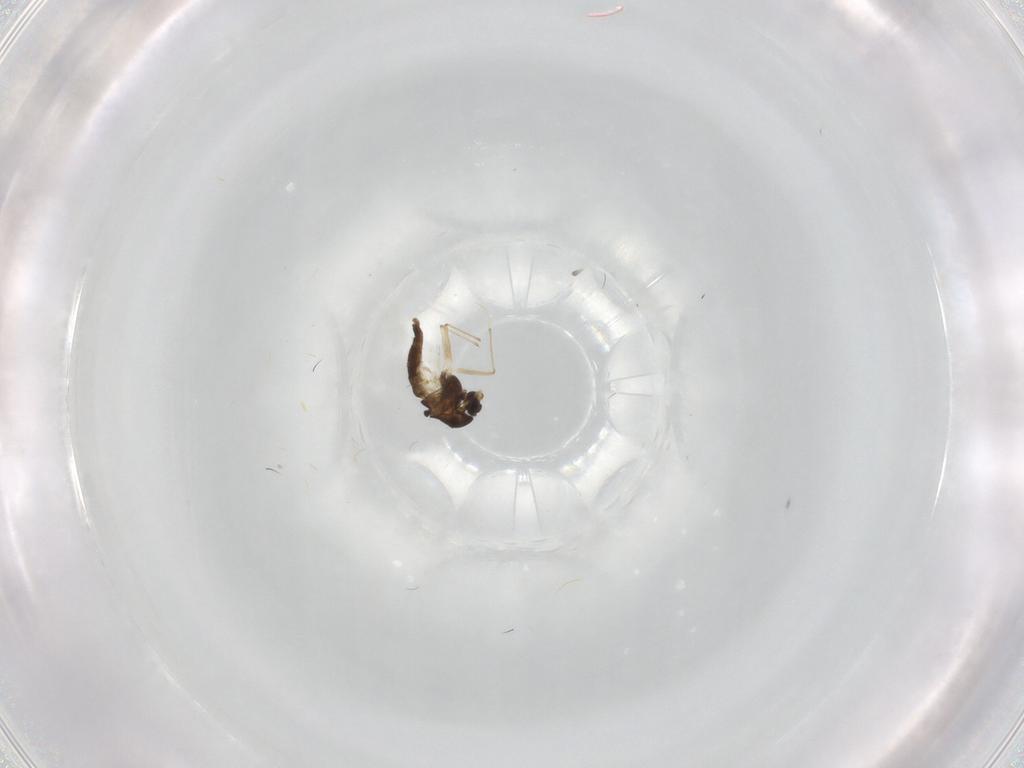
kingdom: Animalia
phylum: Arthropoda
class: Insecta
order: Diptera
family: Chironomidae
